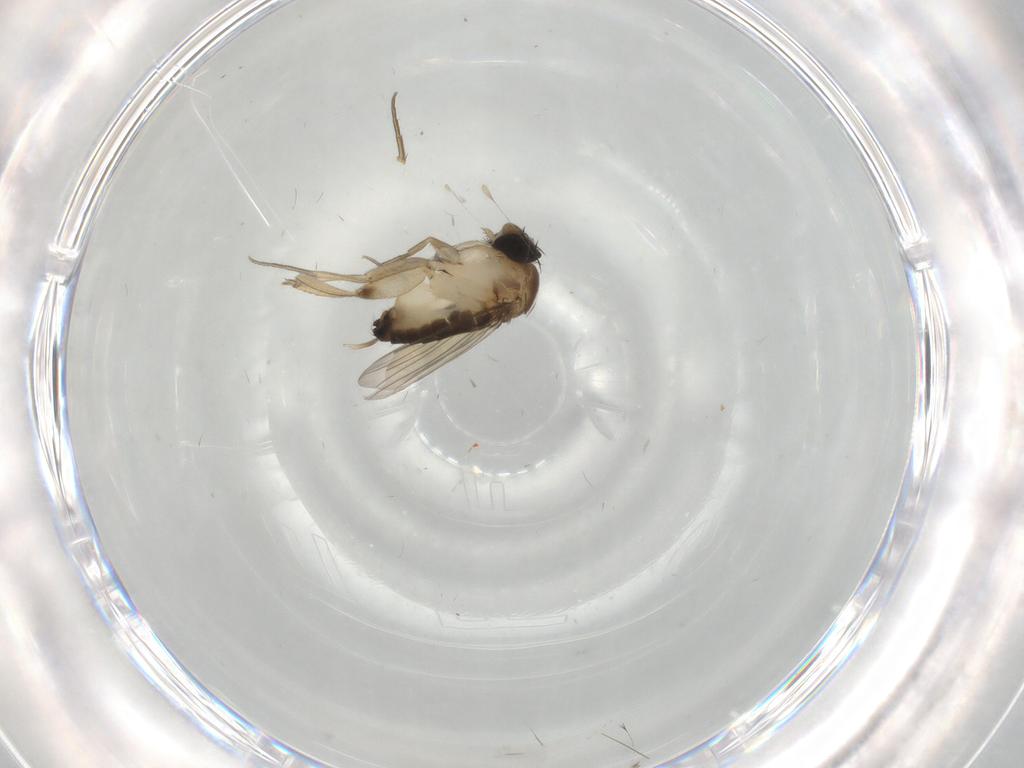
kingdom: Animalia
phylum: Arthropoda
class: Insecta
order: Diptera
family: Phoridae
